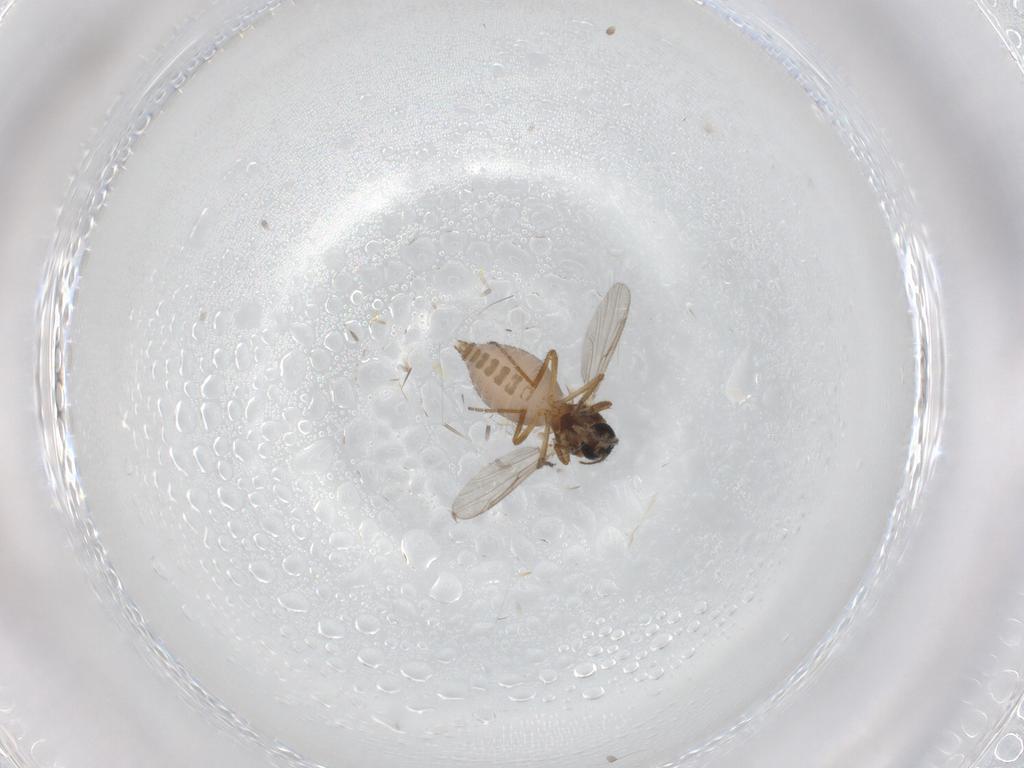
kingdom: Animalia
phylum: Arthropoda
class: Insecta
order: Diptera
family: Ceratopogonidae
